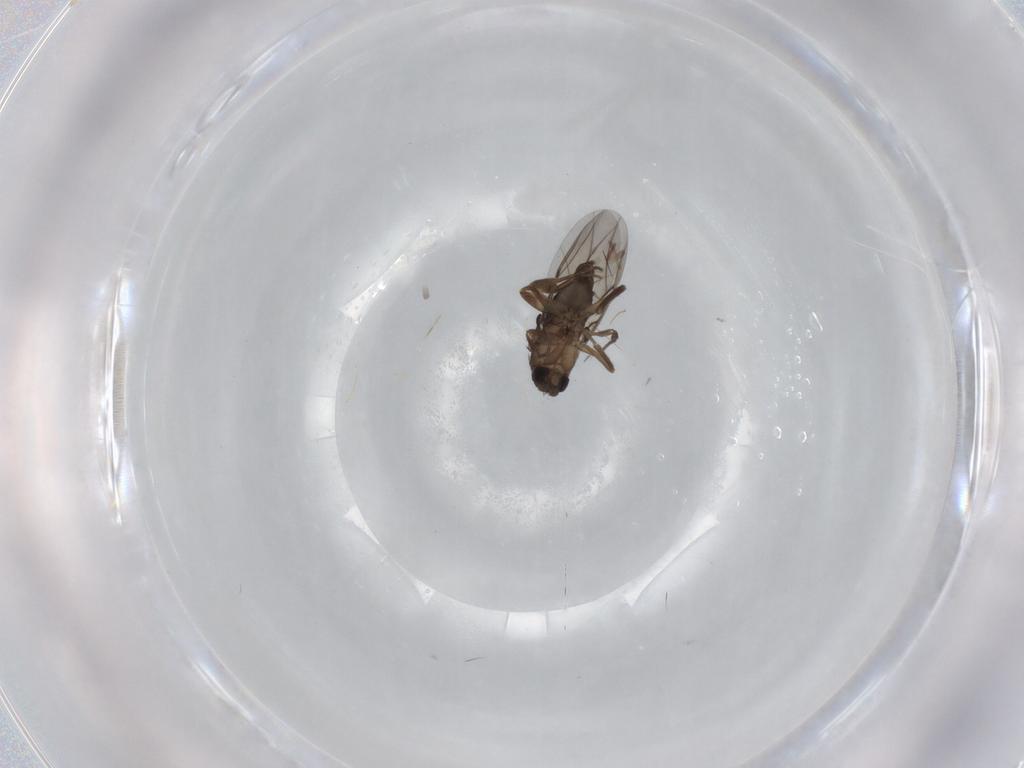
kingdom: Animalia
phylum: Arthropoda
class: Insecta
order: Diptera
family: Phoridae
